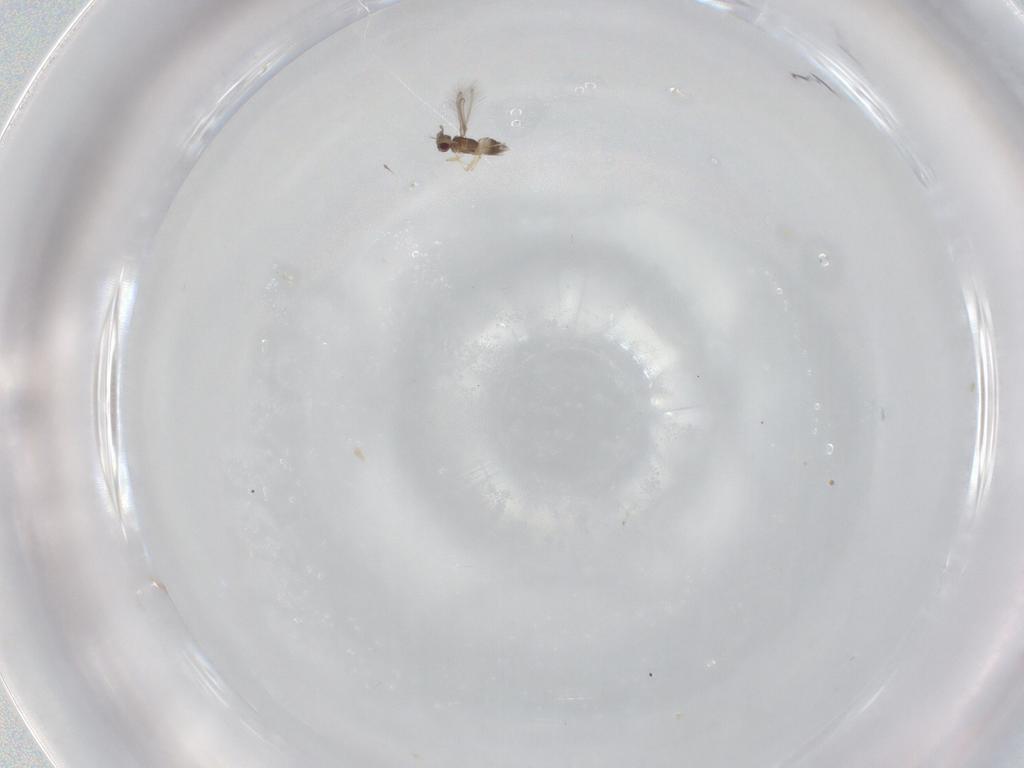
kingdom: Animalia
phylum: Arthropoda
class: Insecta
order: Hymenoptera
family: Mymaridae
